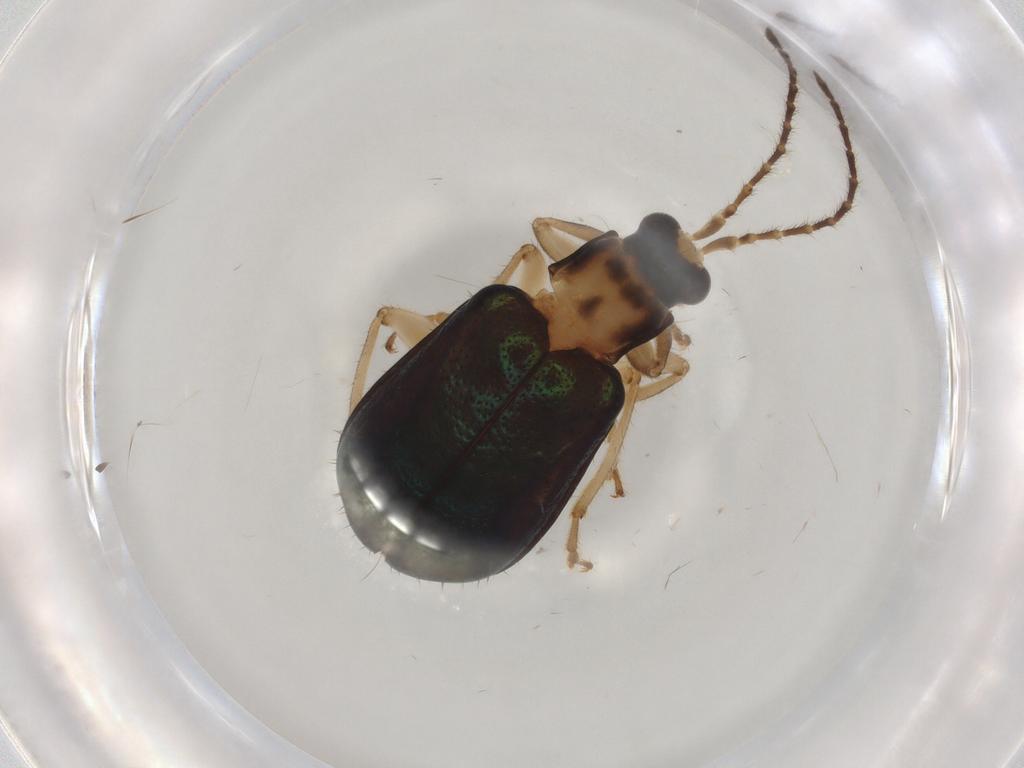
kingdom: Animalia
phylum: Arthropoda
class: Insecta
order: Coleoptera
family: Chrysomelidae
